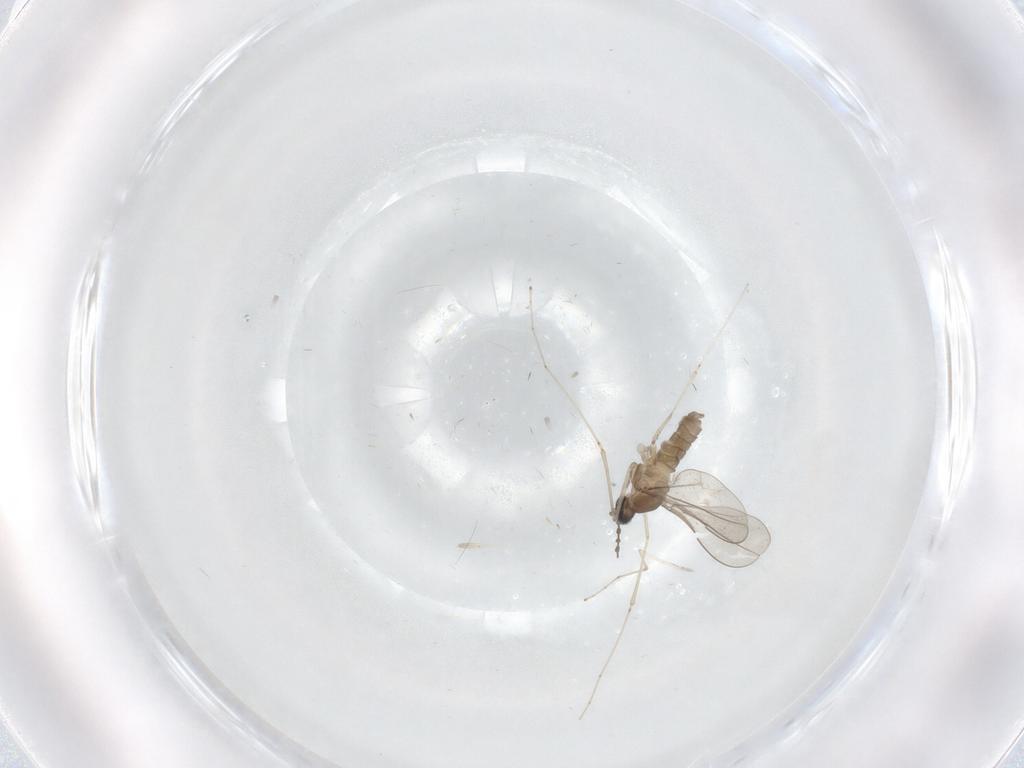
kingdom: Animalia
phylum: Arthropoda
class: Insecta
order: Diptera
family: Cecidomyiidae
